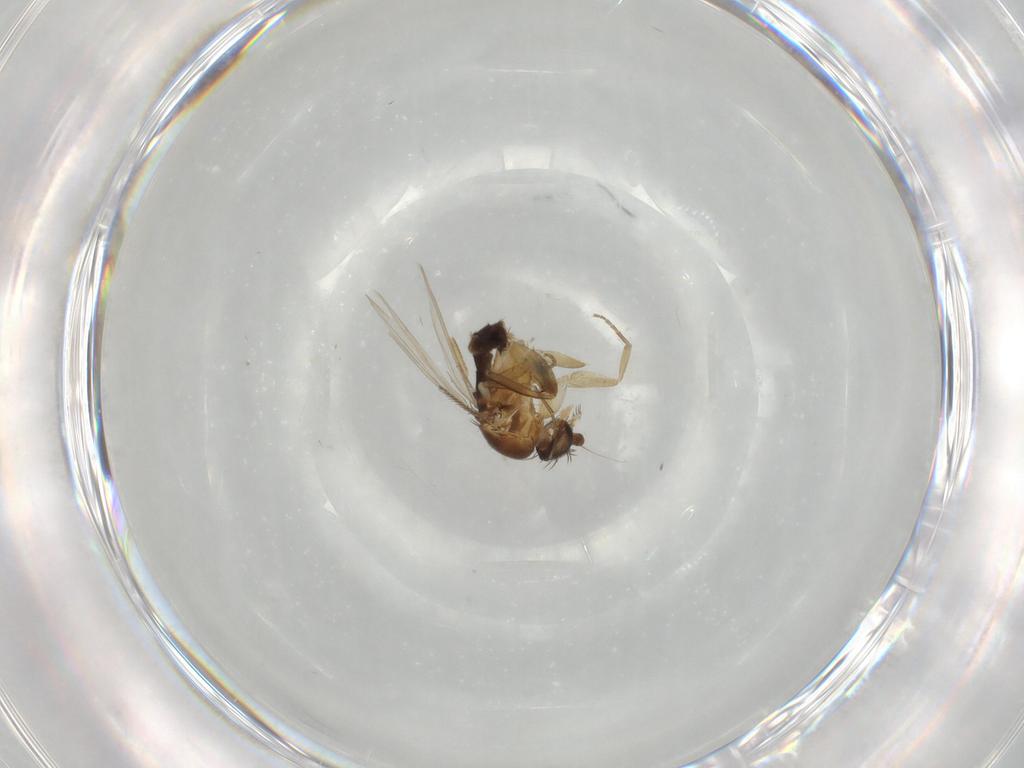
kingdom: Animalia
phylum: Arthropoda
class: Insecta
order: Diptera
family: Phoridae
